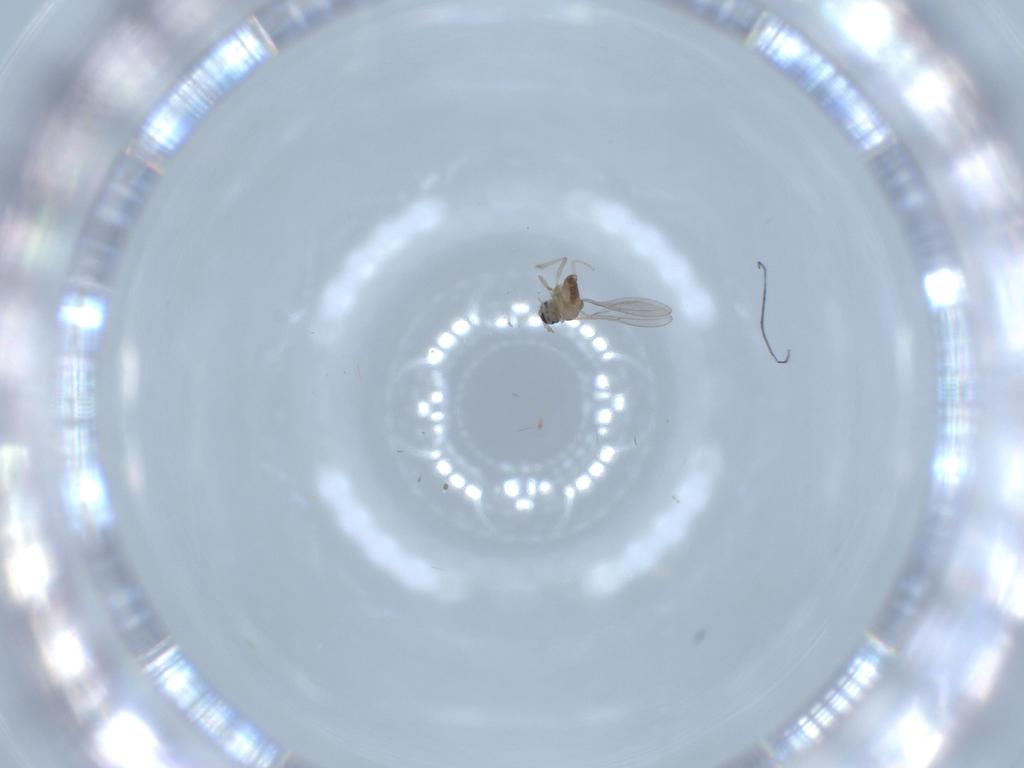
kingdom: Animalia
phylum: Arthropoda
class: Insecta
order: Diptera
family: Cecidomyiidae
